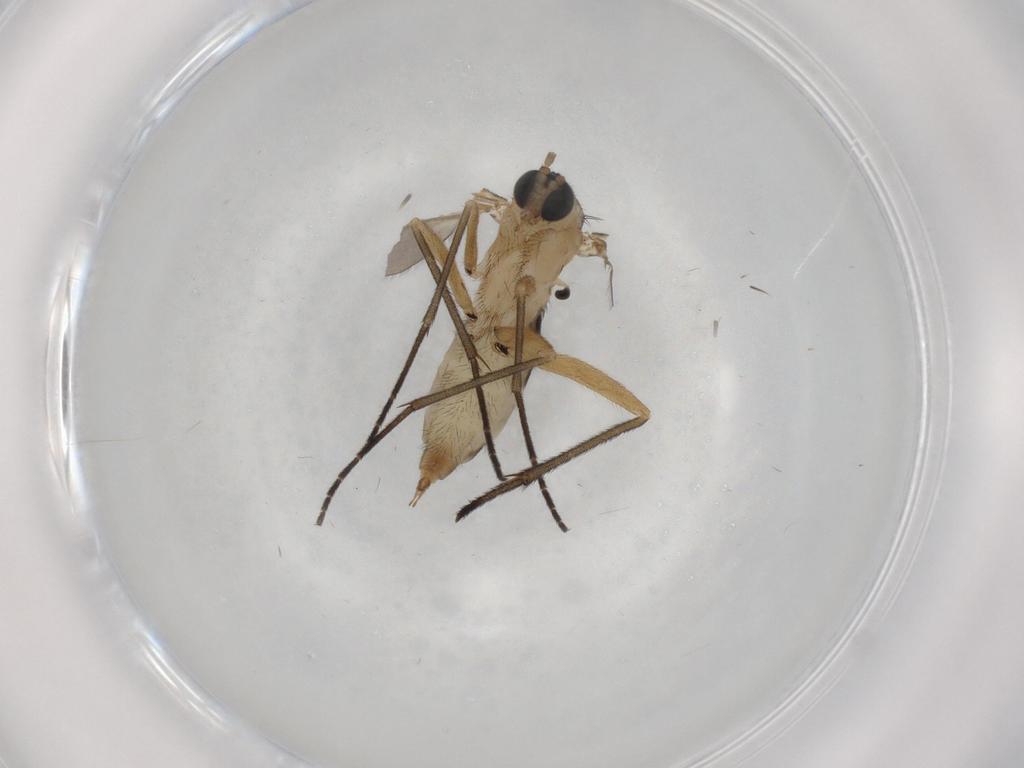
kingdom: Animalia
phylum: Arthropoda
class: Insecta
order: Diptera
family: Sciaridae
